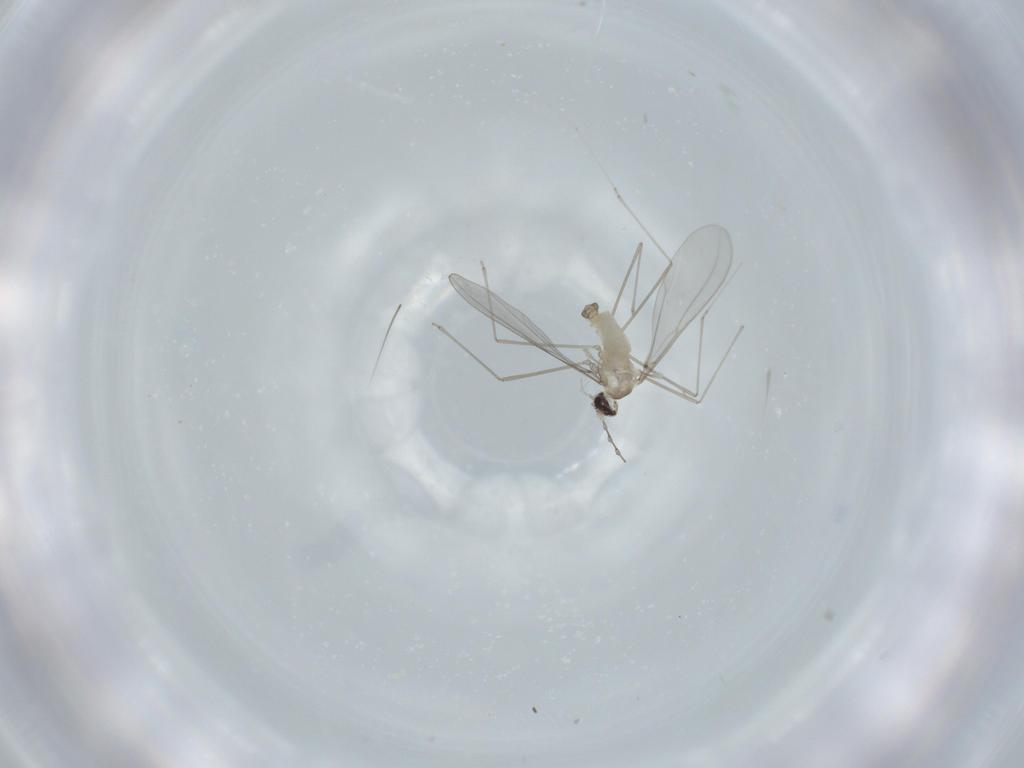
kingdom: Animalia
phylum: Arthropoda
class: Insecta
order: Diptera
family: Cecidomyiidae
